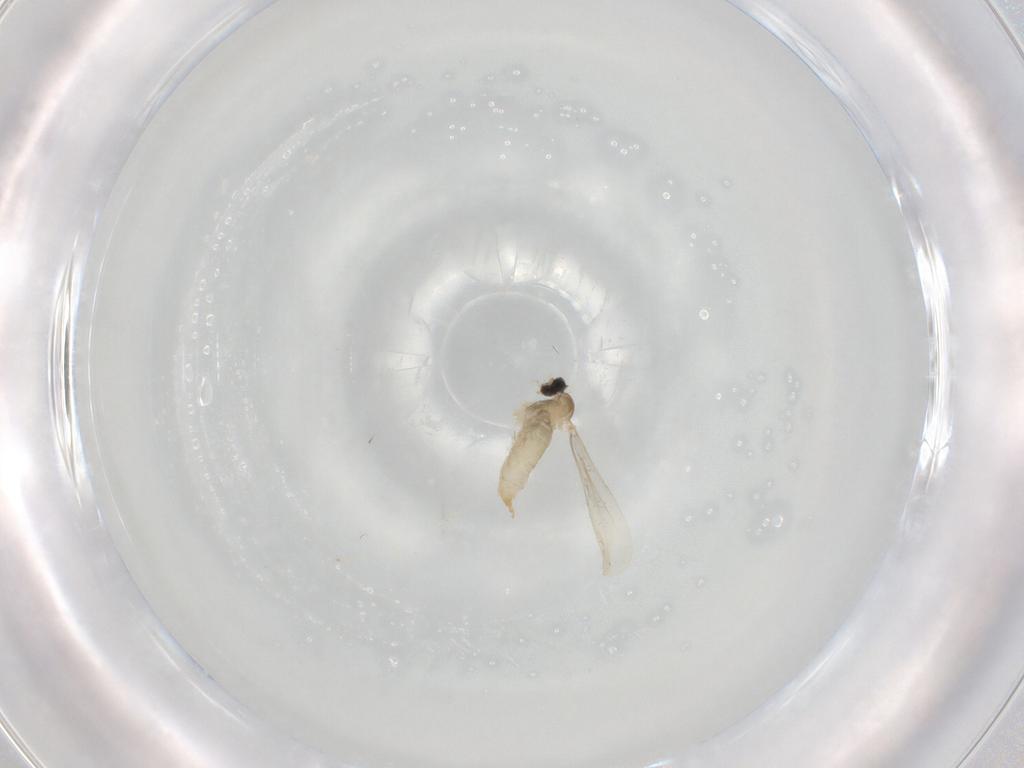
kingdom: Animalia
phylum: Arthropoda
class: Insecta
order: Diptera
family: Cecidomyiidae
